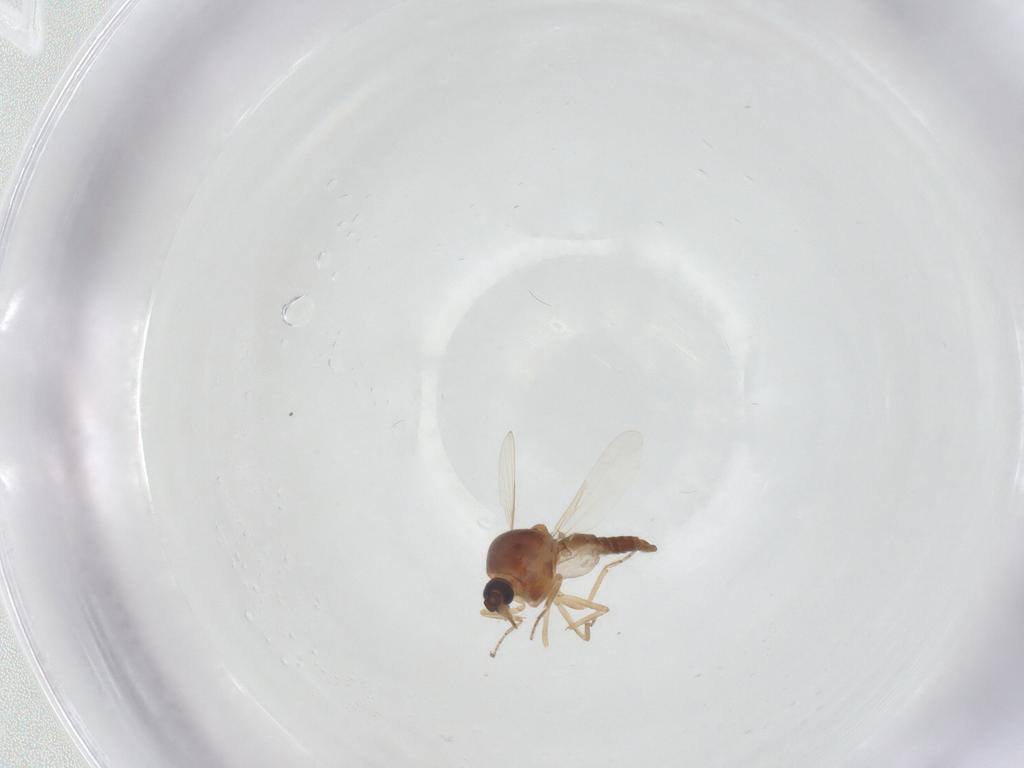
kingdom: Animalia
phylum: Arthropoda
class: Insecta
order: Diptera
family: Ceratopogonidae
